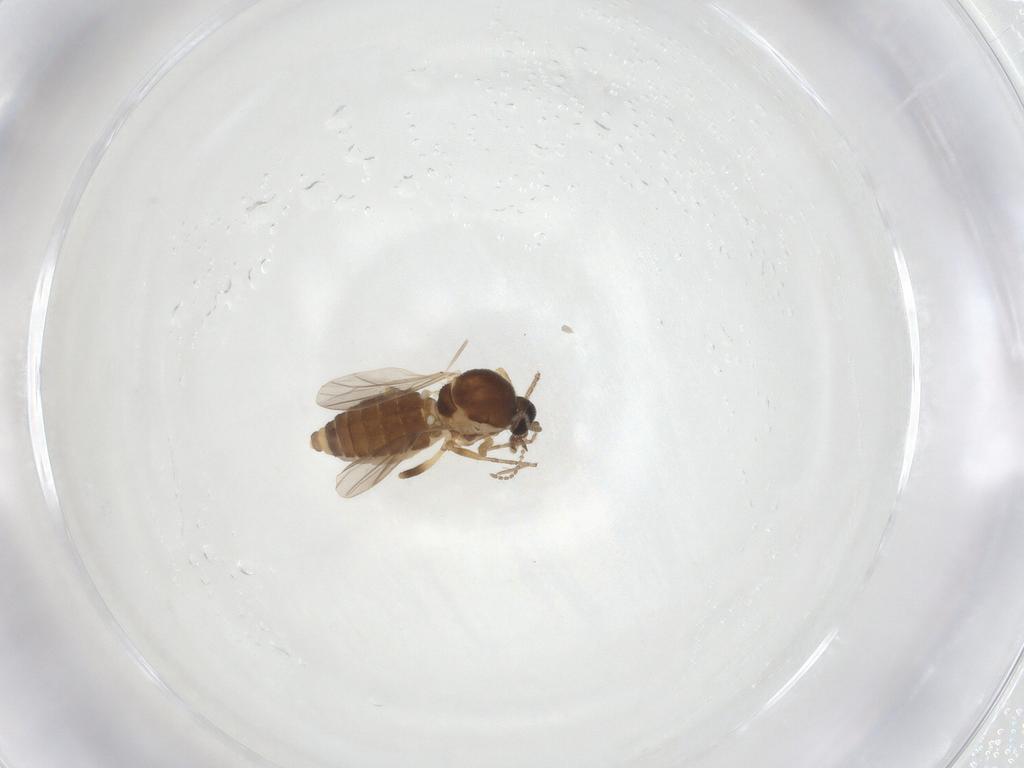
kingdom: Animalia
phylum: Arthropoda
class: Insecta
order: Diptera
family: Ceratopogonidae
